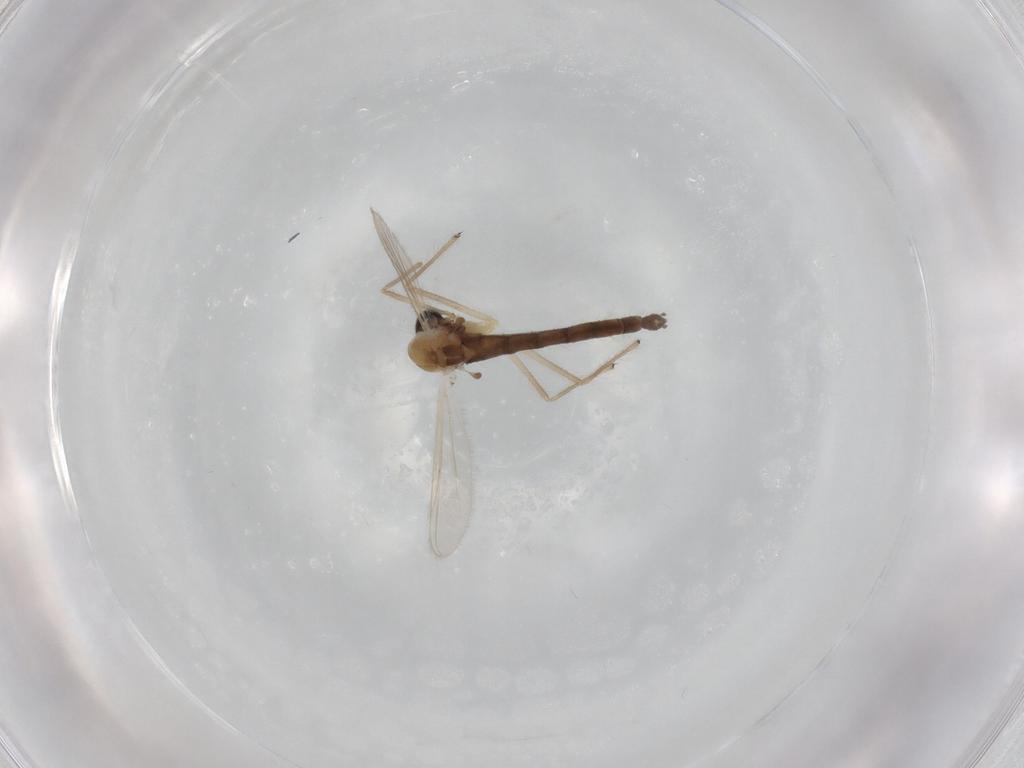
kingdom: Animalia
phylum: Arthropoda
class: Insecta
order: Diptera
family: Chironomidae
